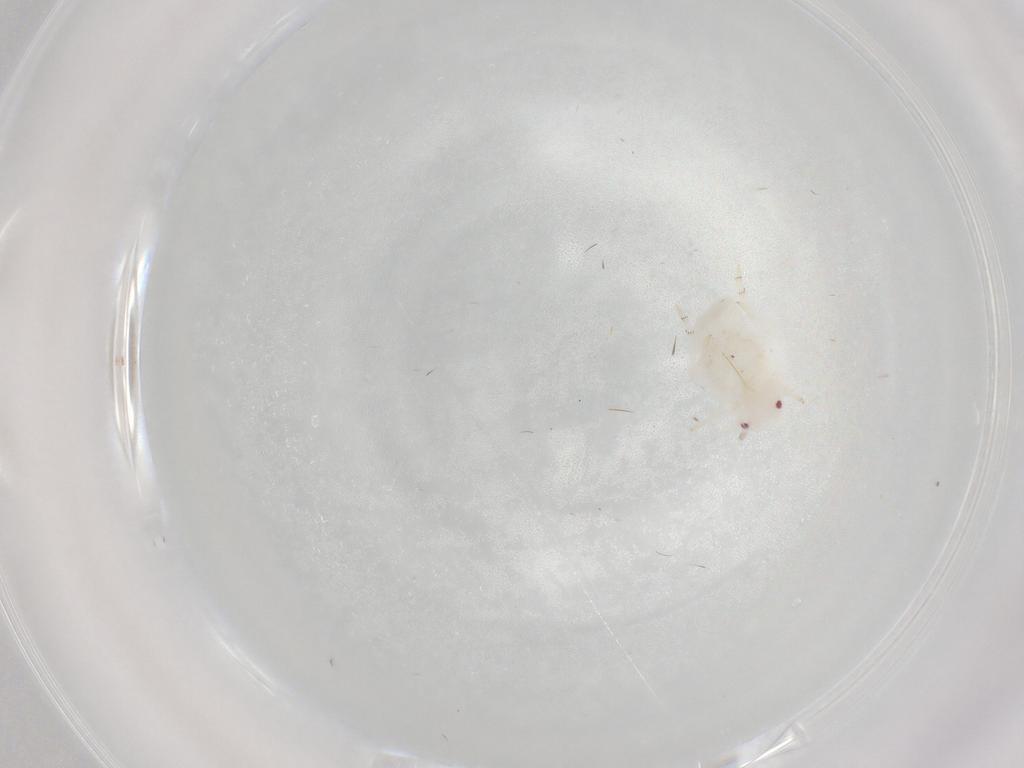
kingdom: Animalia
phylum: Arthropoda
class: Insecta
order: Hemiptera
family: Flatidae
